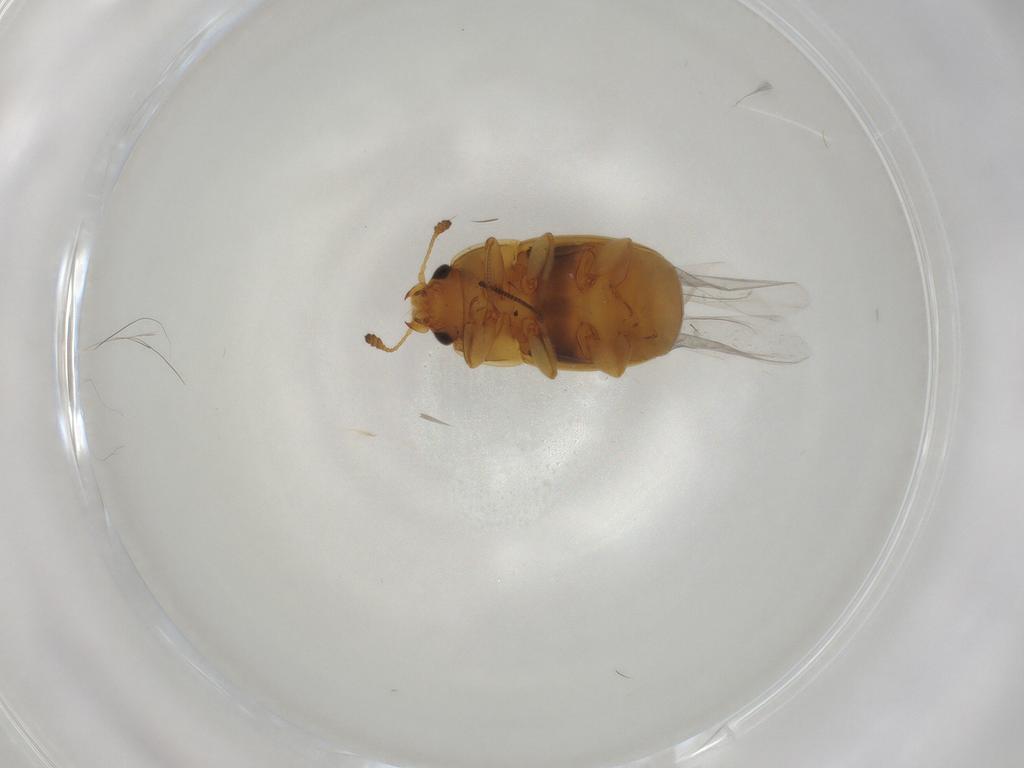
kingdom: Animalia
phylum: Arthropoda
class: Insecta
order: Coleoptera
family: Nitidulidae
